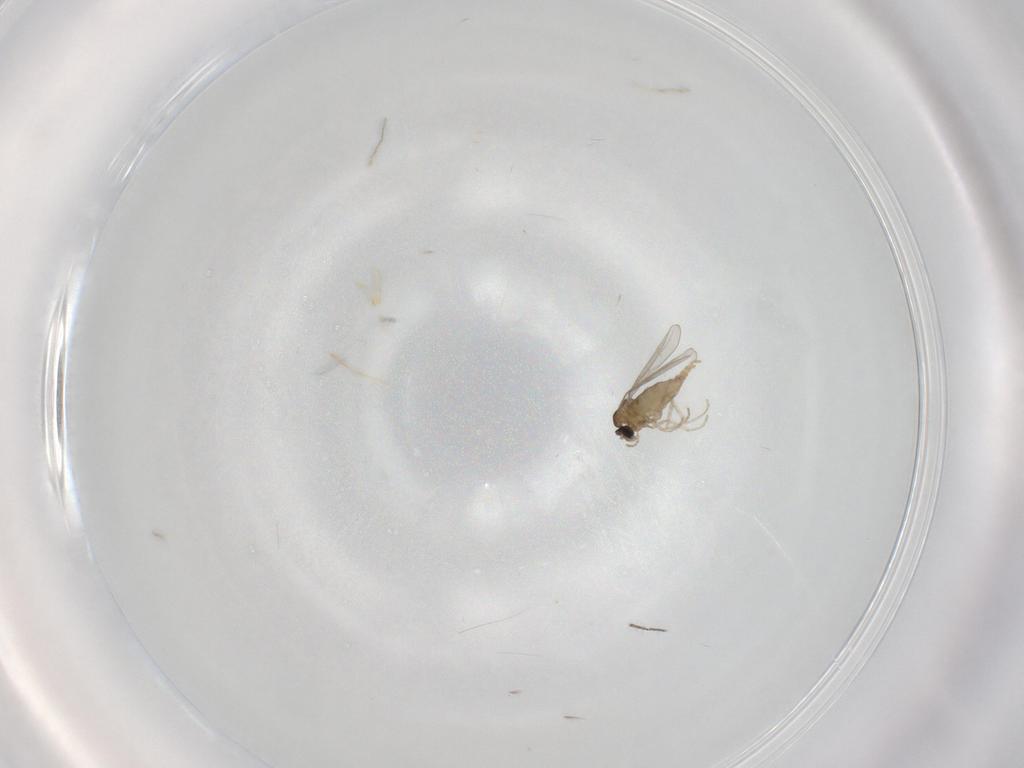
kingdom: Animalia
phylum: Arthropoda
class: Insecta
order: Diptera
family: Cecidomyiidae
